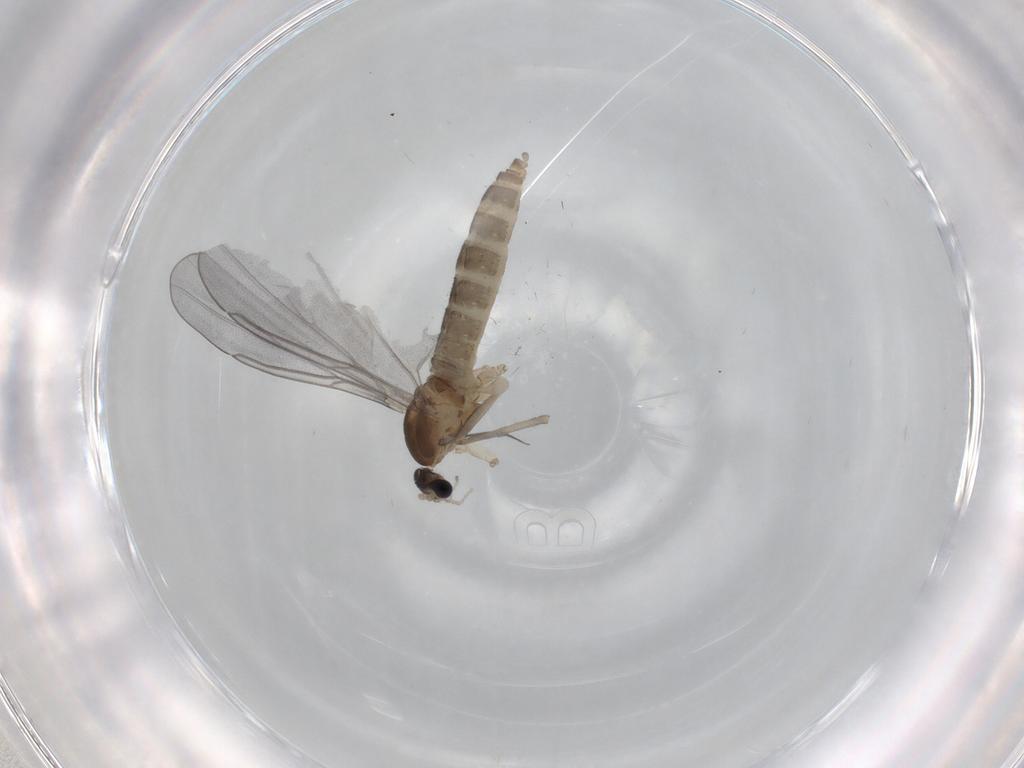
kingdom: Animalia
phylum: Arthropoda
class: Insecta
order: Diptera
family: Cecidomyiidae
